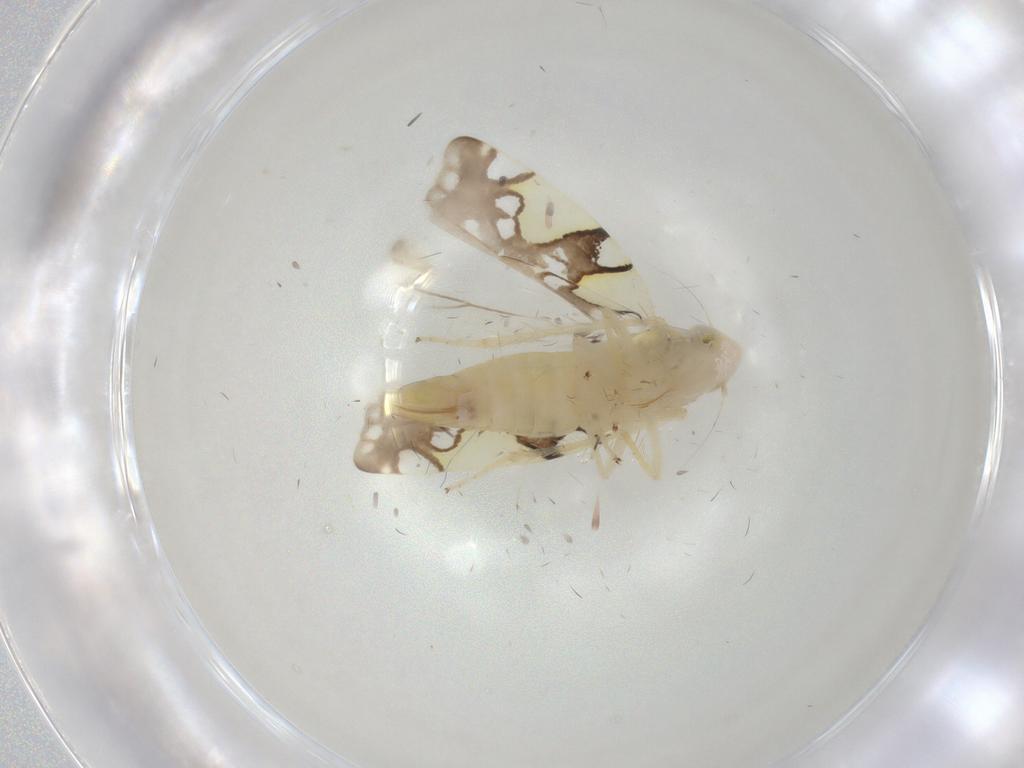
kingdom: Animalia
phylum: Arthropoda
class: Insecta
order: Hemiptera
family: Cicadellidae
